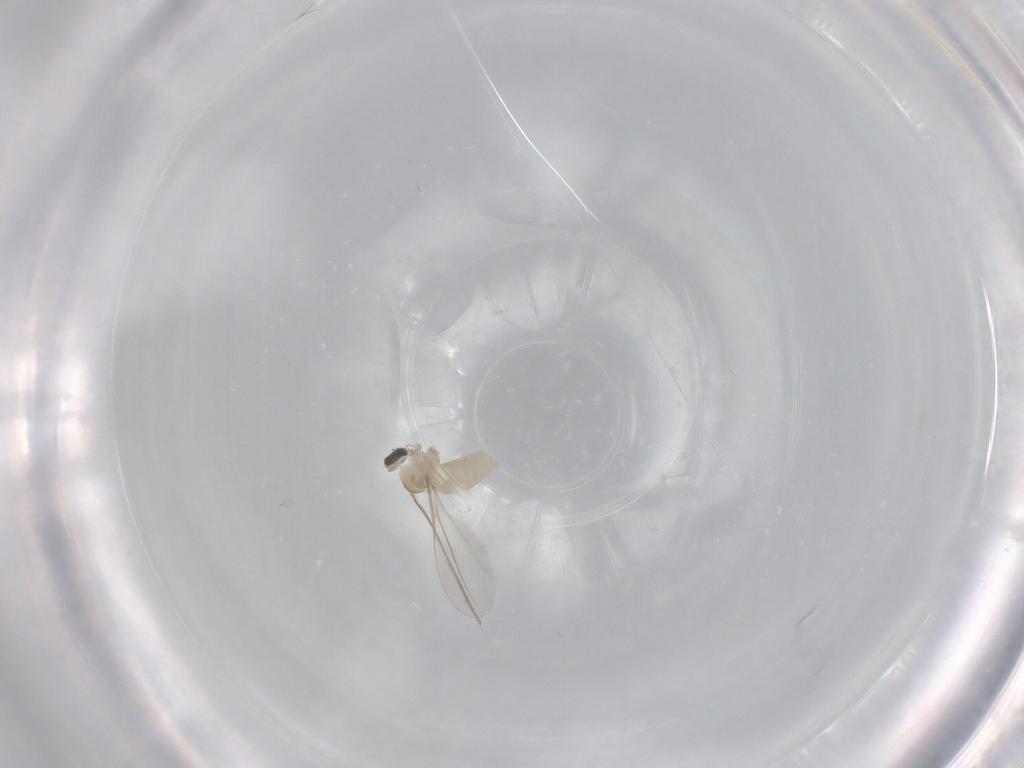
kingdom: Animalia
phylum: Arthropoda
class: Insecta
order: Diptera
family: Cecidomyiidae
